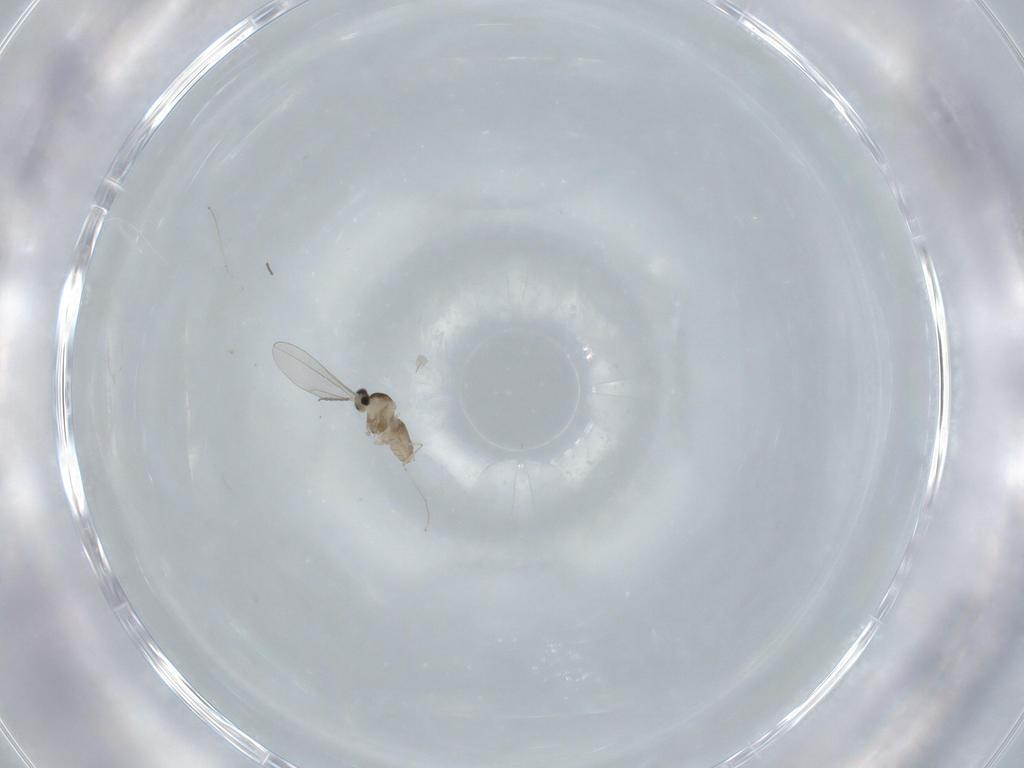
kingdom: Animalia
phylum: Arthropoda
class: Insecta
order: Diptera
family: Cecidomyiidae
